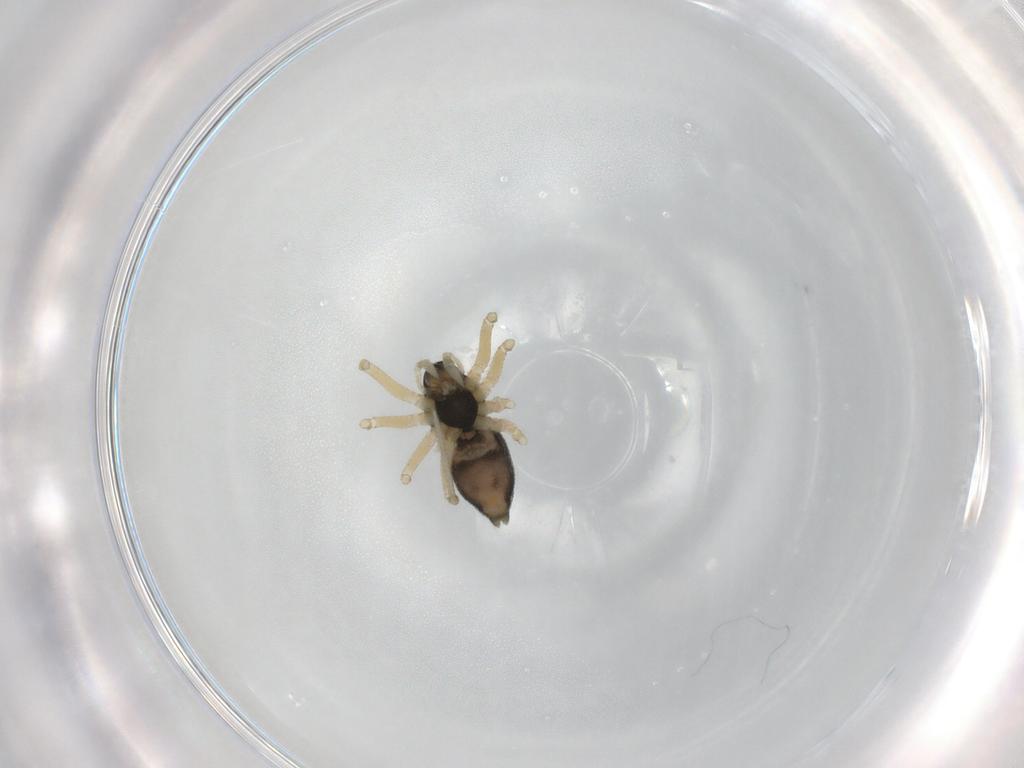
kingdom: Animalia
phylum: Arthropoda
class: Arachnida
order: Araneae
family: Linyphiidae
